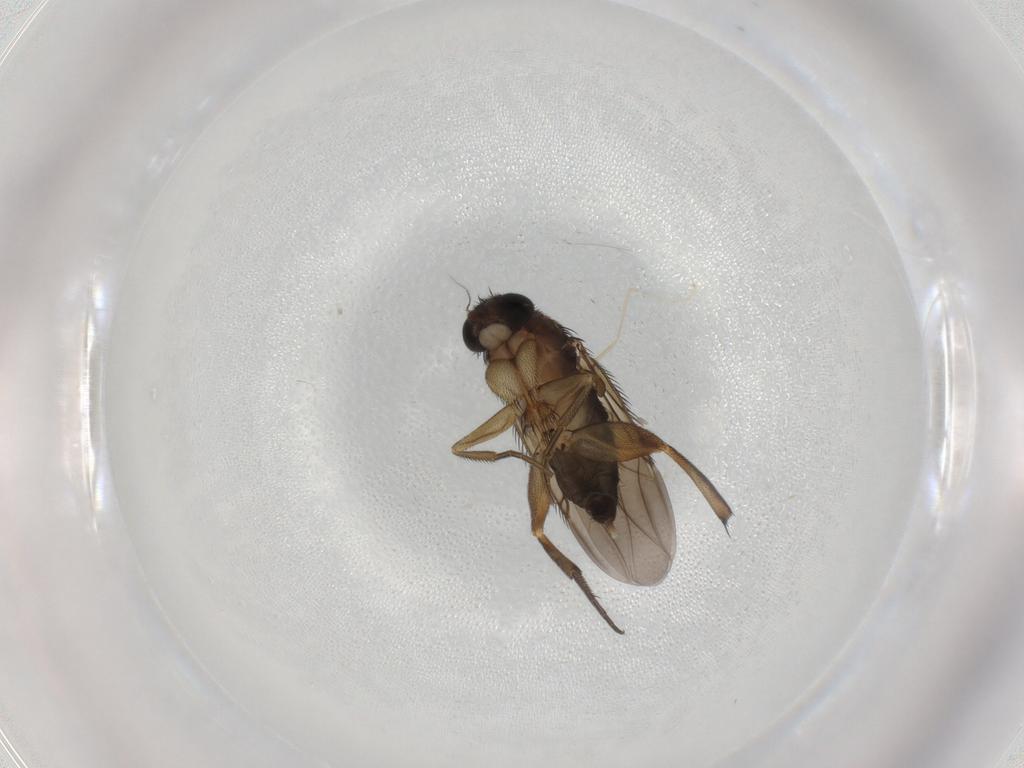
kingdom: Animalia
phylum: Arthropoda
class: Insecta
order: Diptera
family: Phoridae
